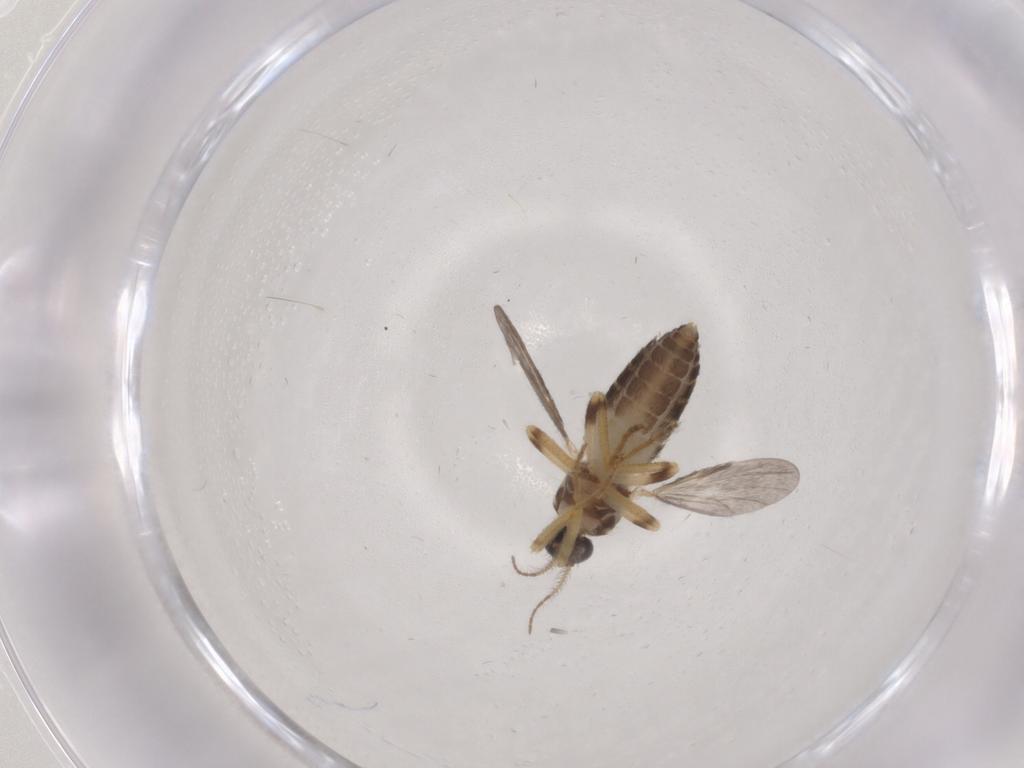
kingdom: Animalia
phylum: Arthropoda
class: Insecta
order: Diptera
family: Ceratopogonidae
